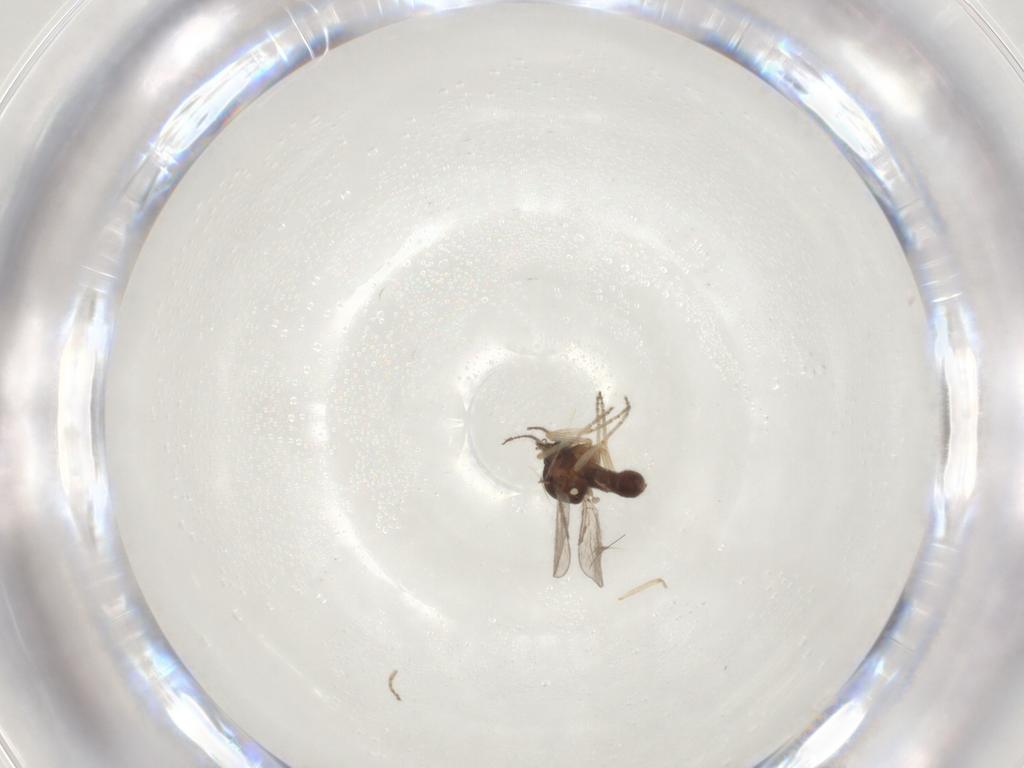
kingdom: Animalia
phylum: Arthropoda
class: Insecta
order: Diptera
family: Ceratopogonidae
